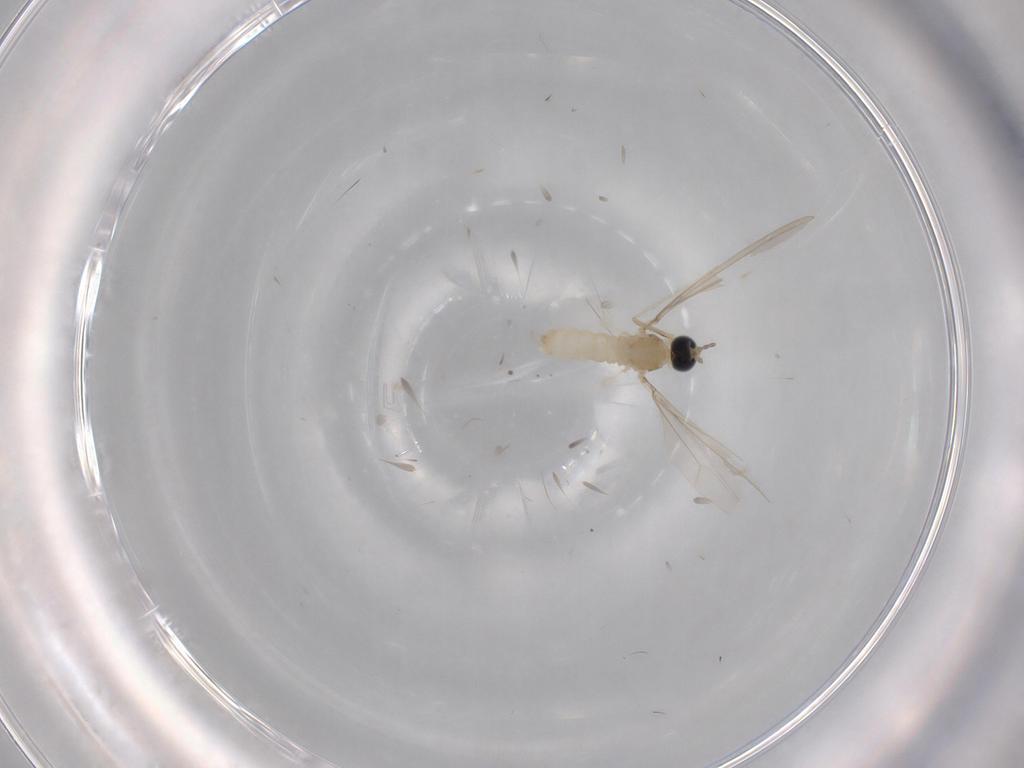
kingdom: Animalia
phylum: Arthropoda
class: Insecta
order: Diptera
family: Cecidomyiidae
